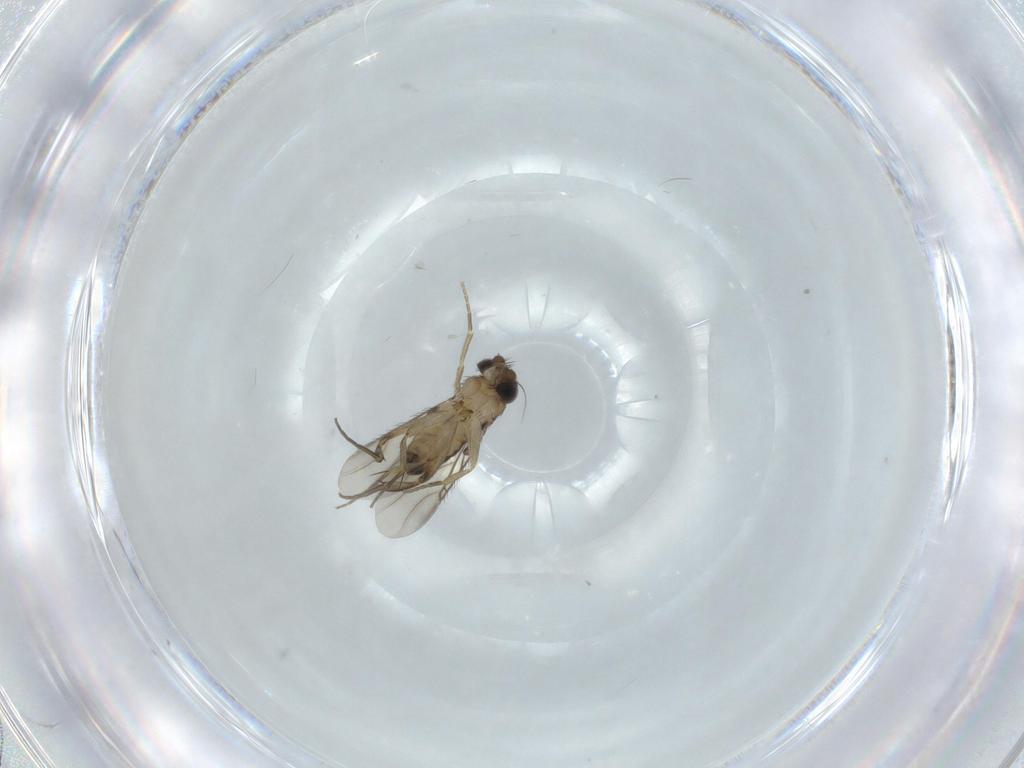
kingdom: Animalia
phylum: Arthropoda
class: Insecta
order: Diptera
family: Phoridae
